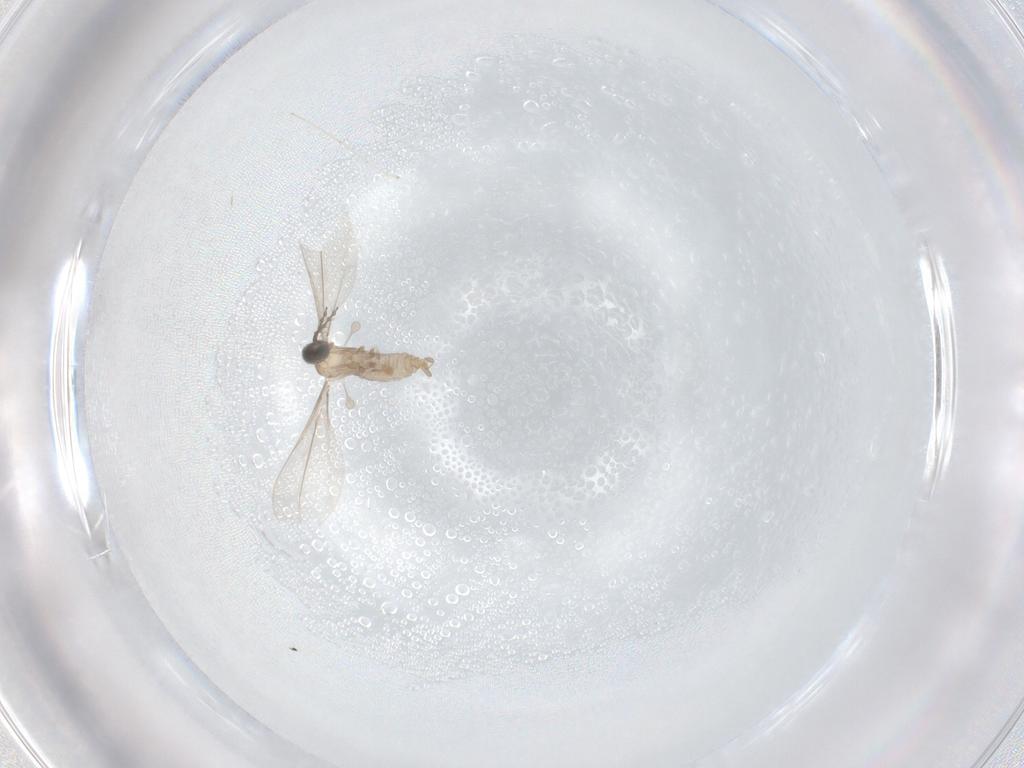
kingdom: Animalia
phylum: Arthropoda
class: Insecta
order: Diptera
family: Cecidomyiidae
